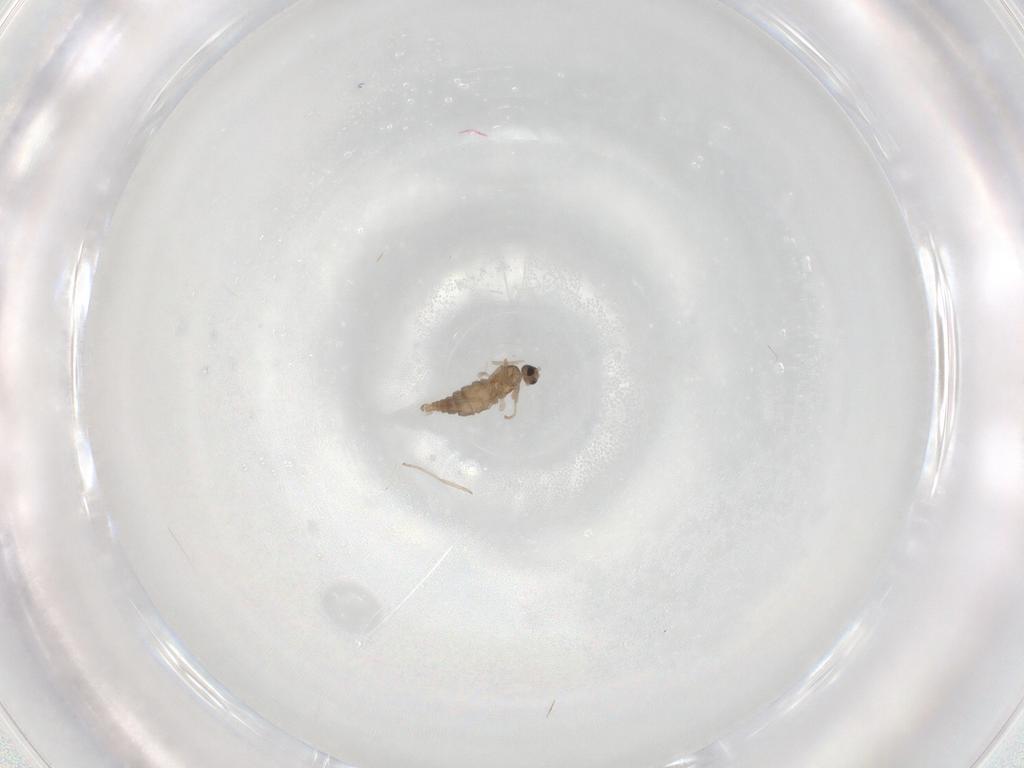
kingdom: Animalia
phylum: Arthropoda
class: Insecta
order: Diptera
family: Cecidomyiidae
